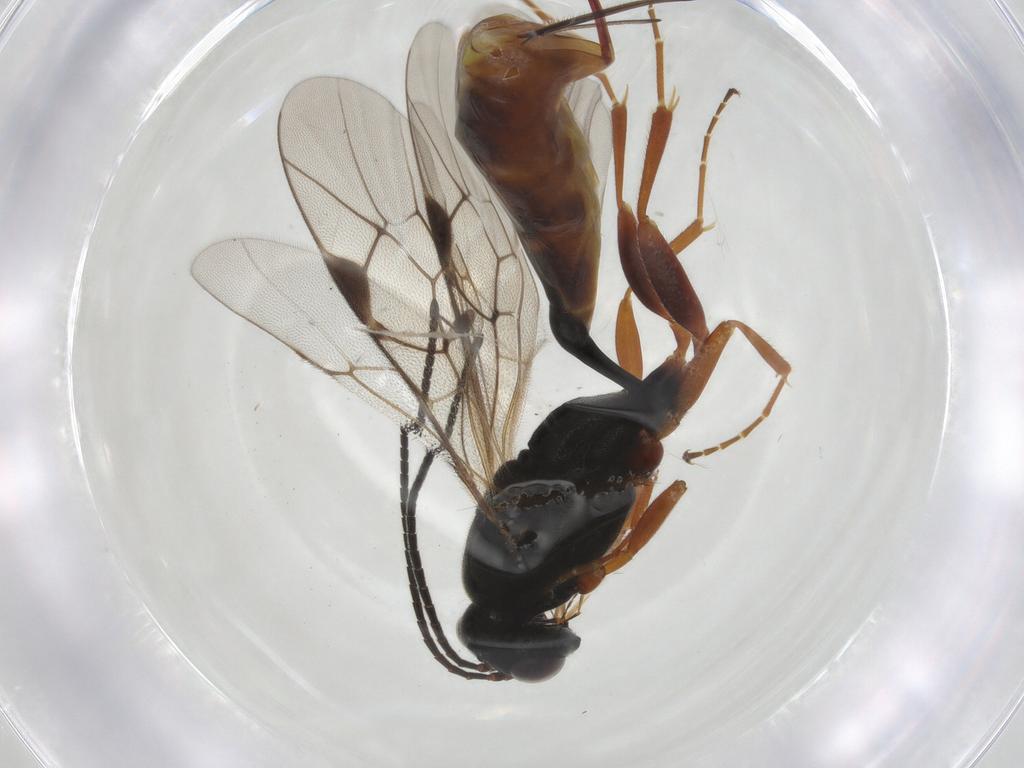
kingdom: Animalia
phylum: Arthropoda
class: Insecta
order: Hymenoptera
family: Ichneumonidae
